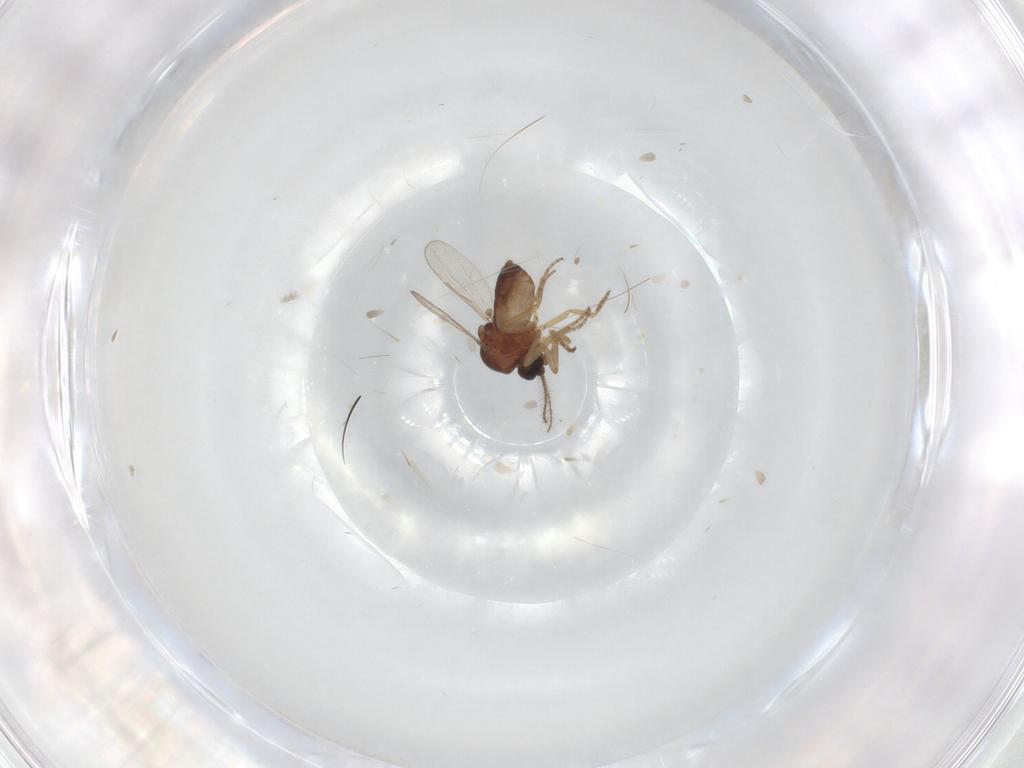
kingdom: Animalia
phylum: Arthropoda
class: Insecta
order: Diptera
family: Ceratopogonidae
